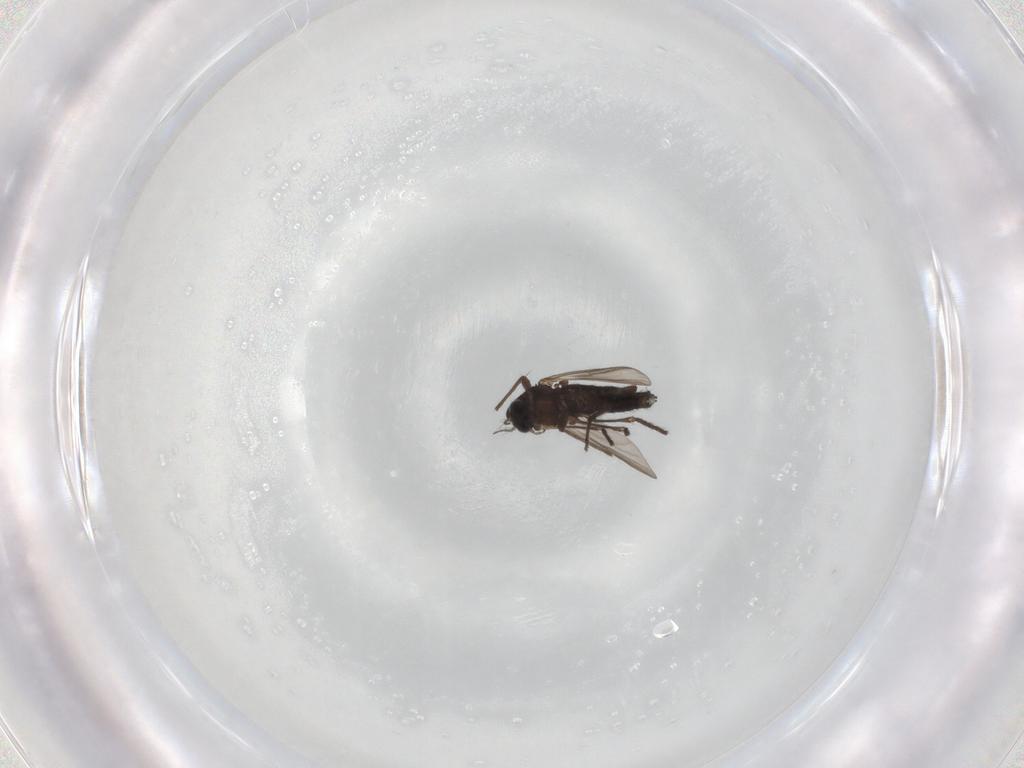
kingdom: Animalia
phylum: Arthropoda
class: Insecta
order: Diptera
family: Chironomidae
